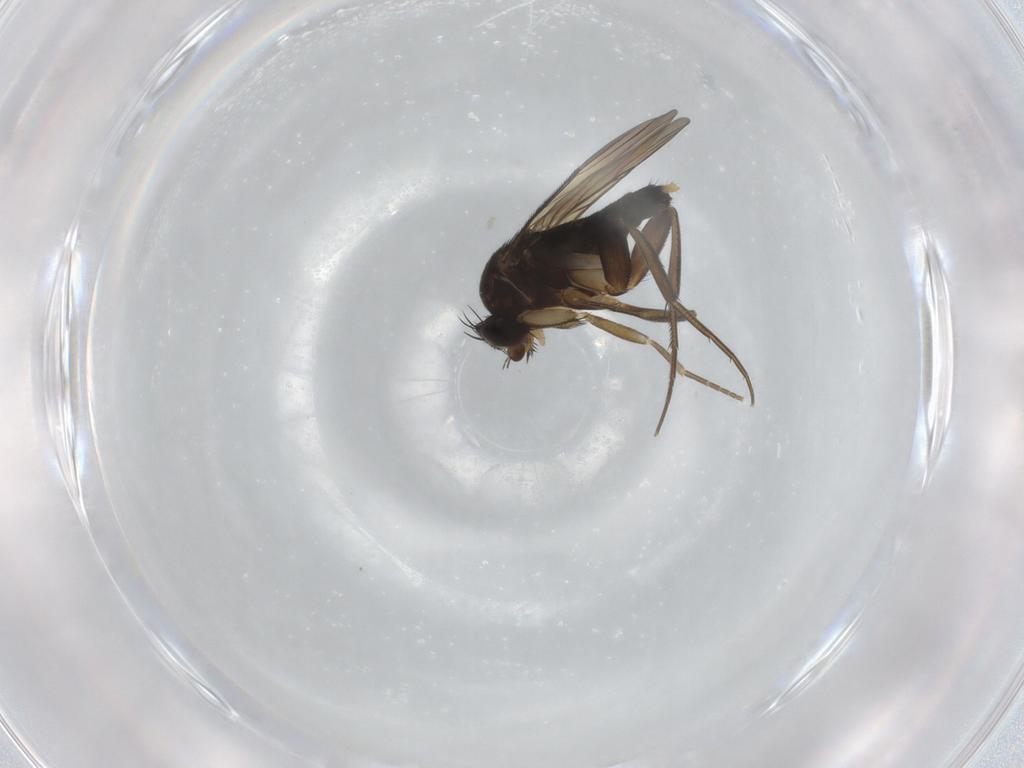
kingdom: Animalia
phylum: Arthropoda
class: Insecta
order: Diptera
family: Phoridae
